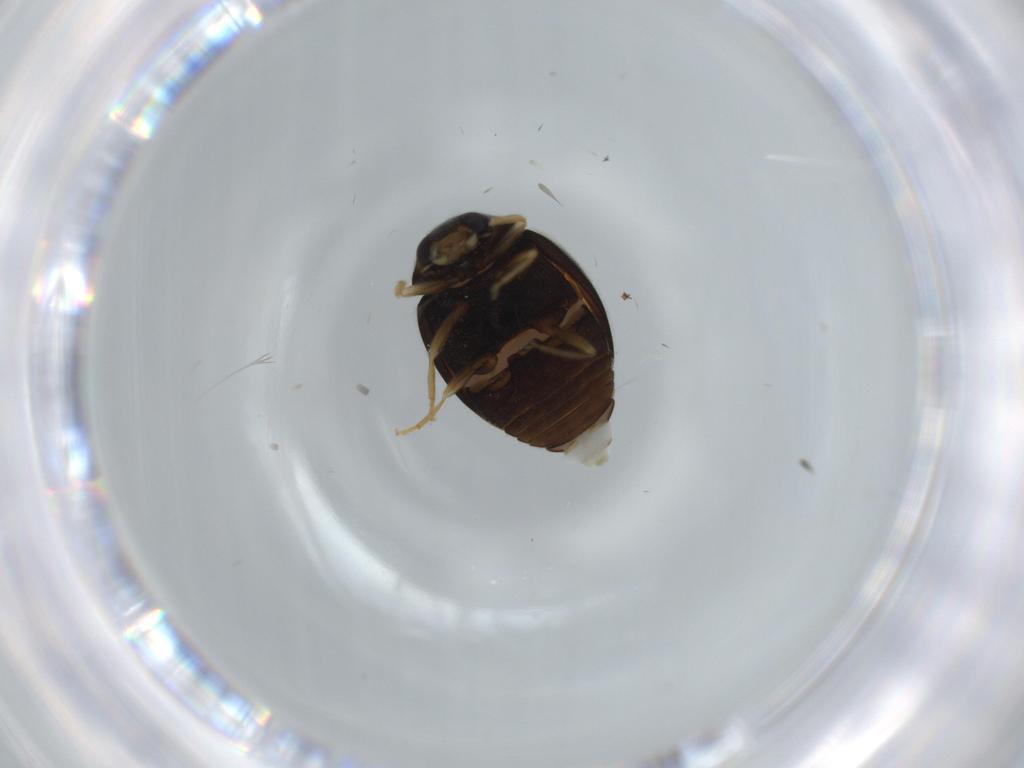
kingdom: Animalia
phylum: Arthropoda
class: Insecta
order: Coleoptera
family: Coccinellidae
